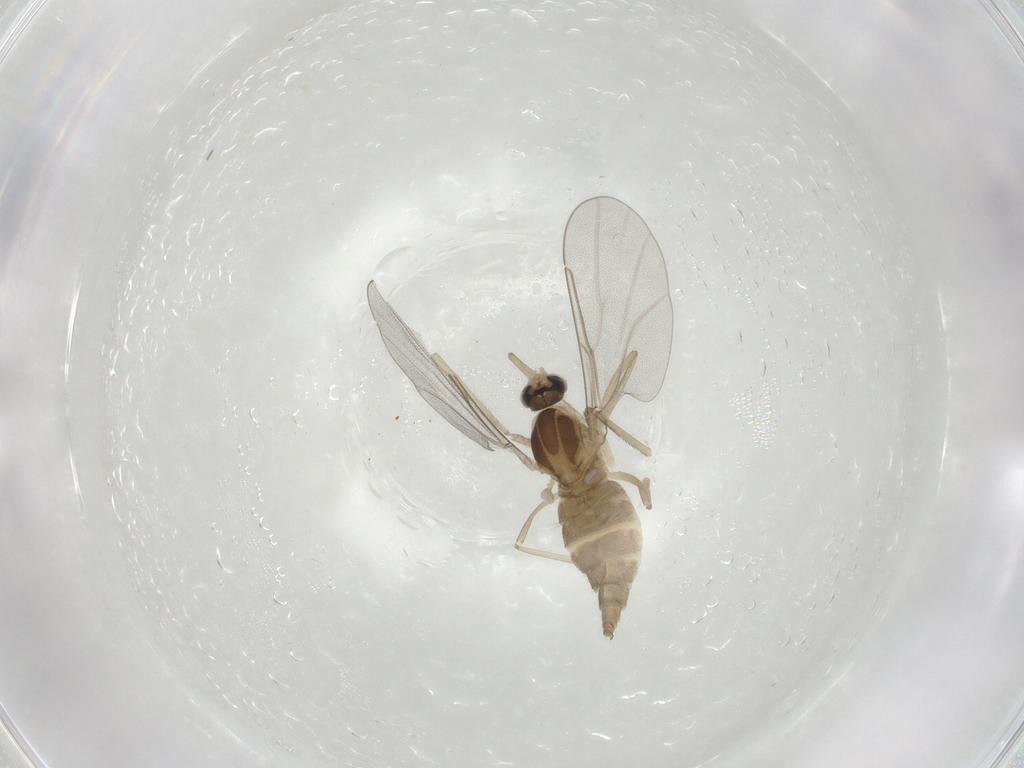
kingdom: Animalia
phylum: Arthropoda
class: Insecta
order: Diptera
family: Cecidomyiidae
